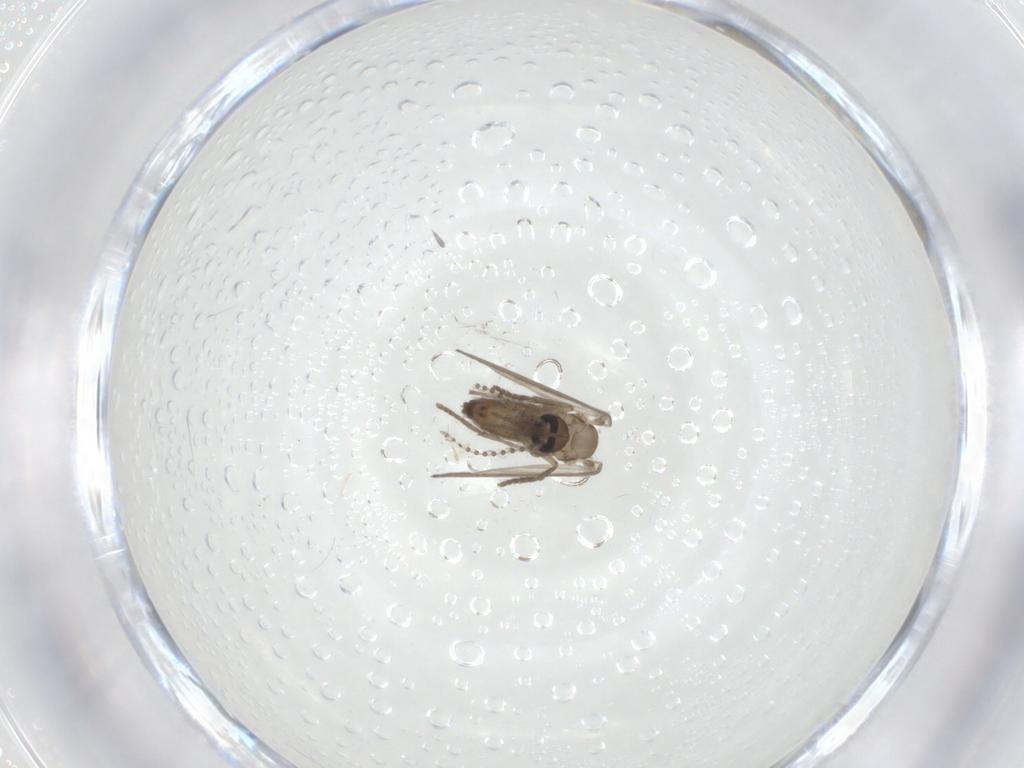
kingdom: Animalia
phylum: Arthropoda
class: Insecta
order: Diptera
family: Psychodidae
